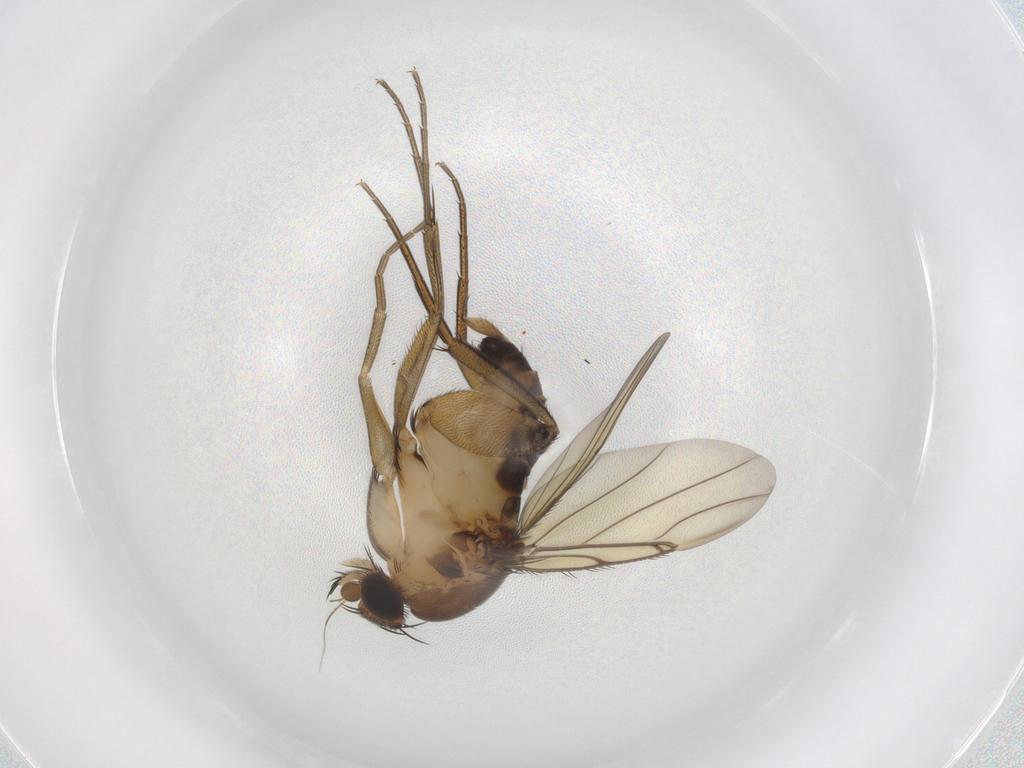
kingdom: Animalia
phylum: Arthropoda
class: Insecta
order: Diptera
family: Phoridae
